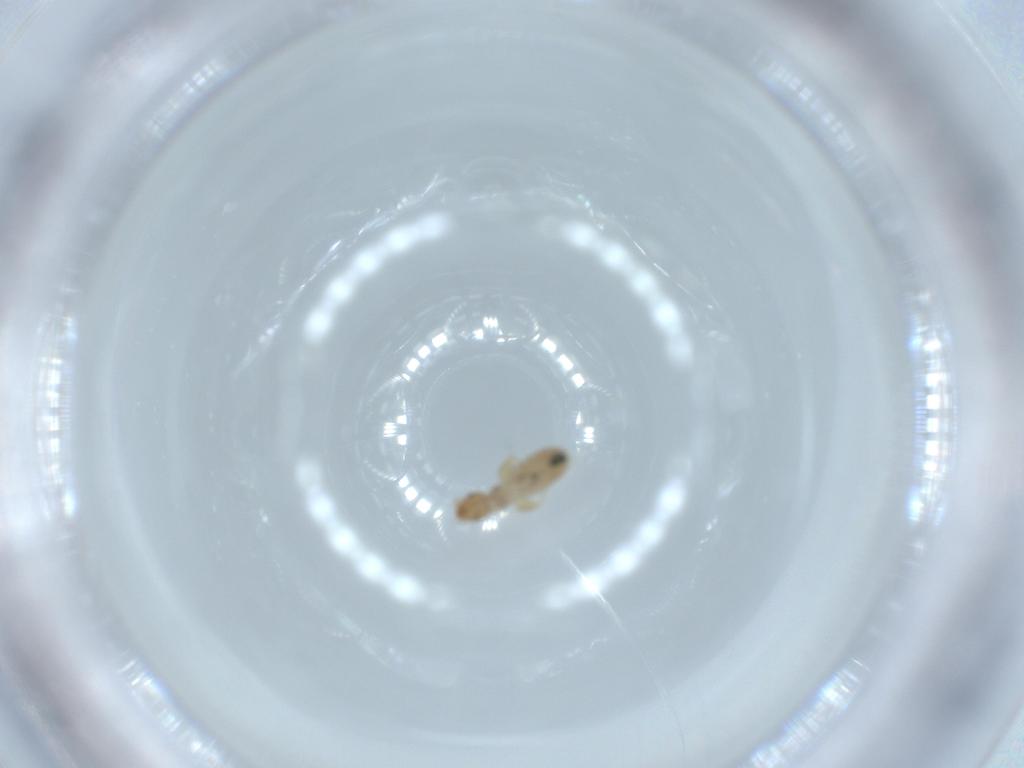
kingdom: Animalia
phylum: Arthropoda
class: Insecta
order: Psocodea
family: Liposcelididae
